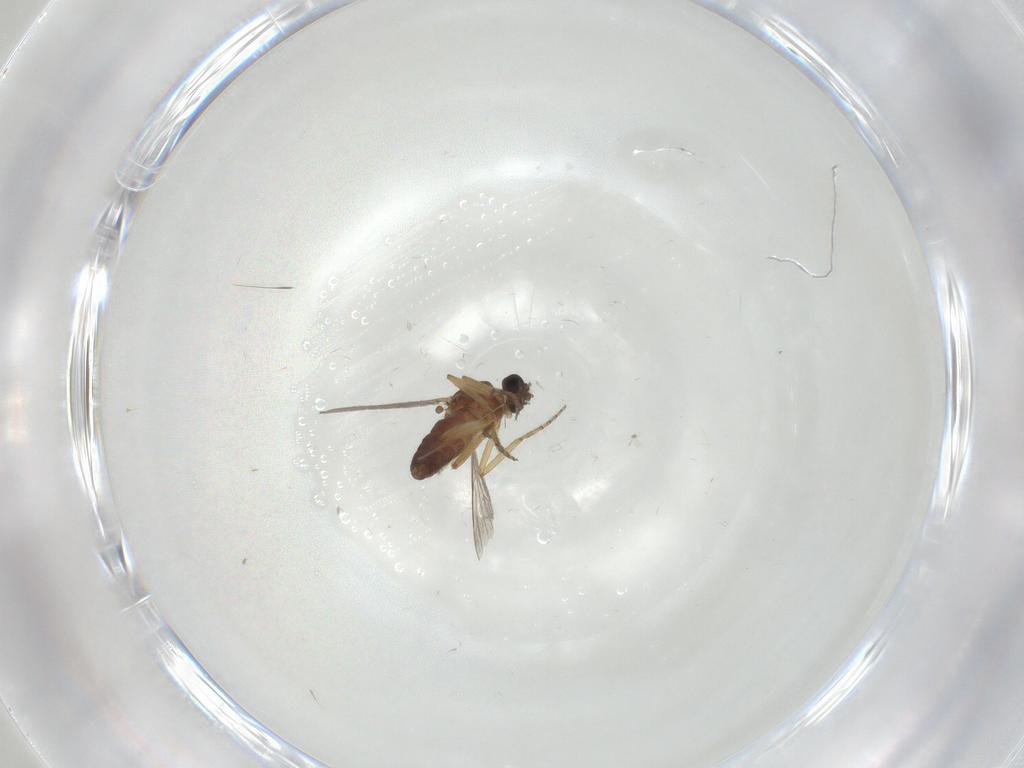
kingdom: Animalia
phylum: Arthropoda
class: Insecta
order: Diptera
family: Ceratopogonidae
